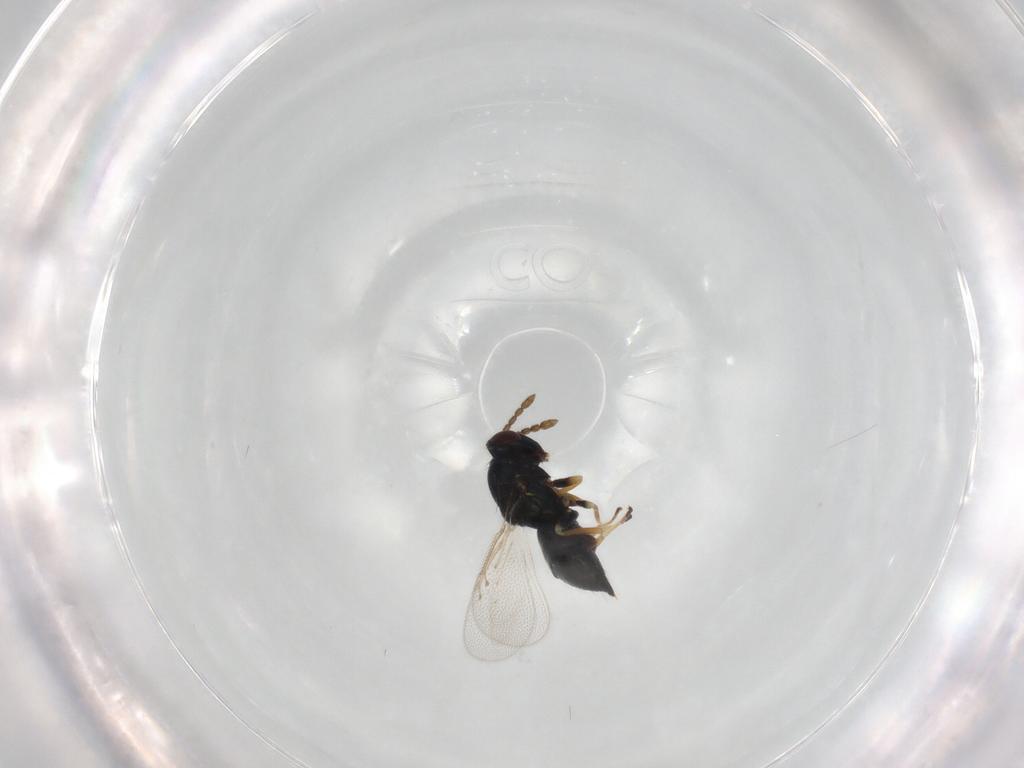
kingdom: Animalia
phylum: Arthropoda
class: Insecta
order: Hymenoptera
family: Eulophidae
